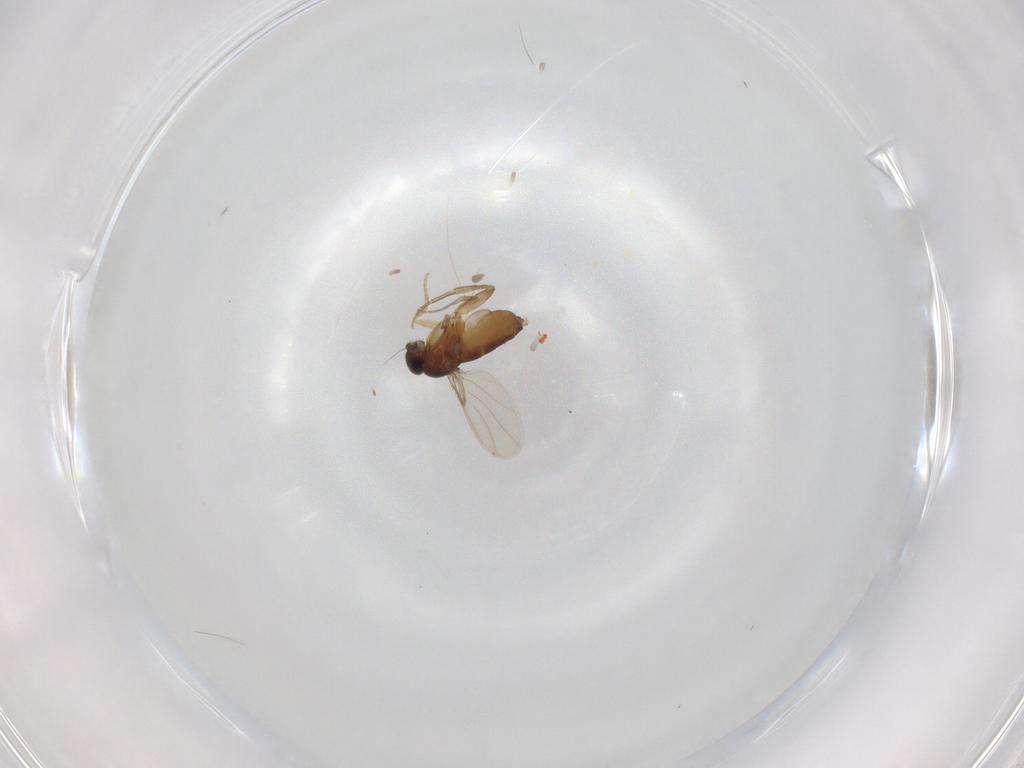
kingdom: Animalia
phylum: Arthropoda
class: Insecta
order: Diptera
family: Phoridae
